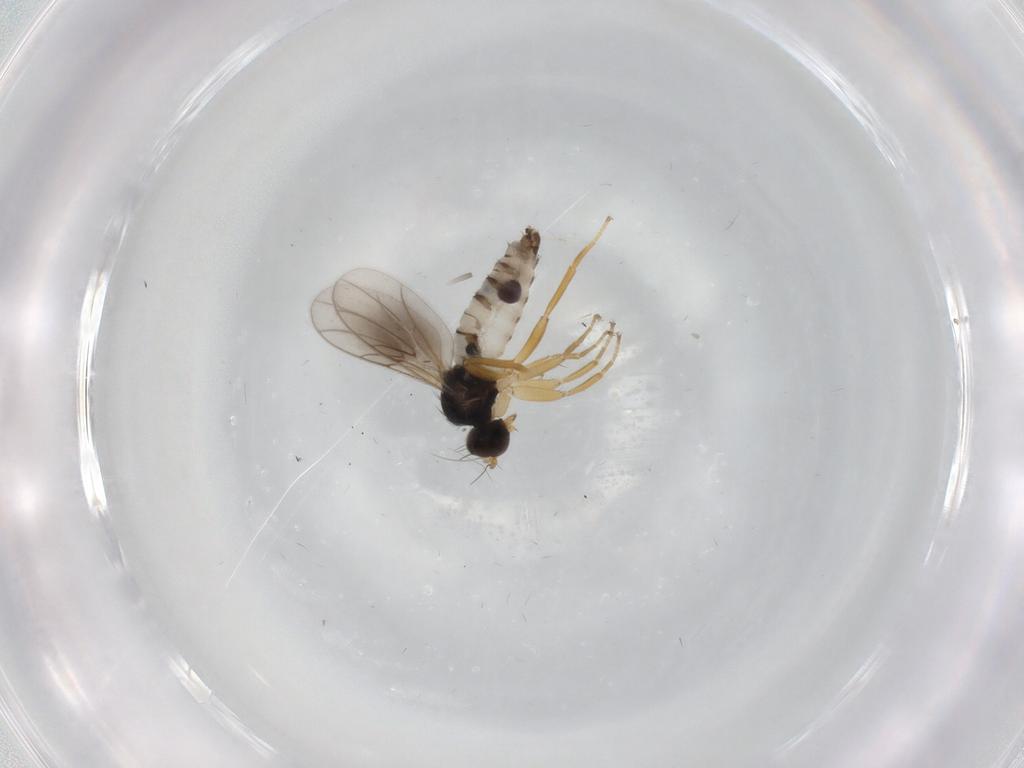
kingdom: Animalia
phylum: Arthropoda
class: Insecta
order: Diptera
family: Hybotidae
